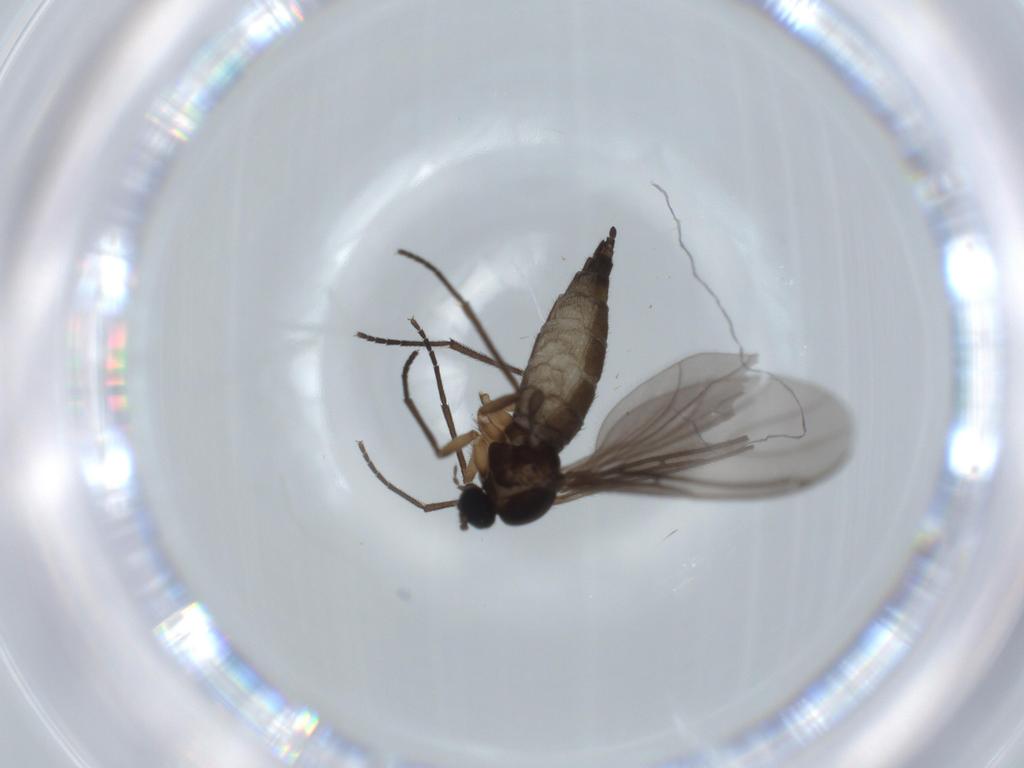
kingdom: Animalia
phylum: Arthropoda
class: Insecta
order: Diptera
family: Sciaridae
